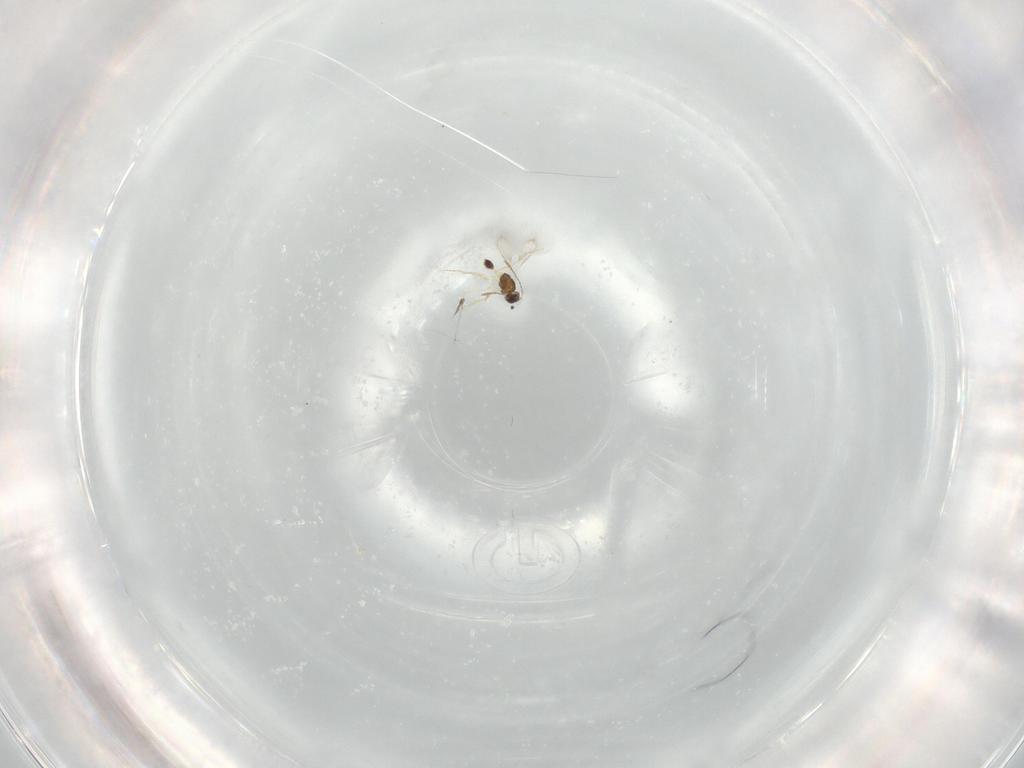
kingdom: Animalia
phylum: Arthropoda
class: Insecta
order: Hymenoptera
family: Mymarommatidae
